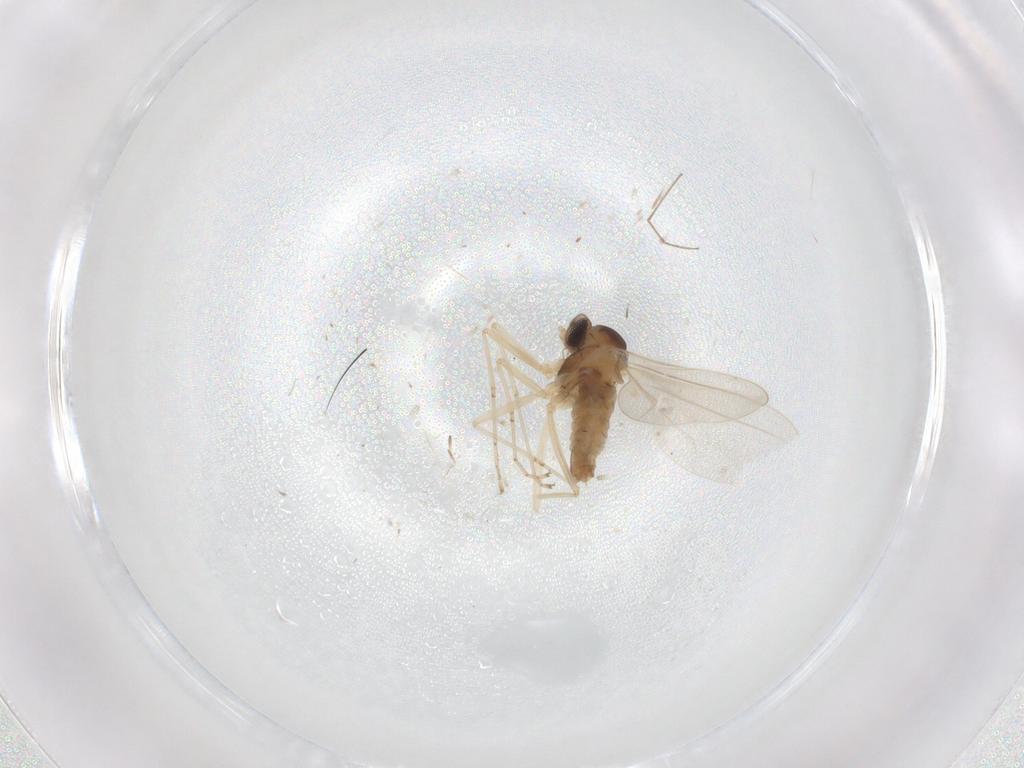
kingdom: Animalia
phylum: Arthropoda
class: Insecta
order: Diptera
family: Cecidomyiidae
